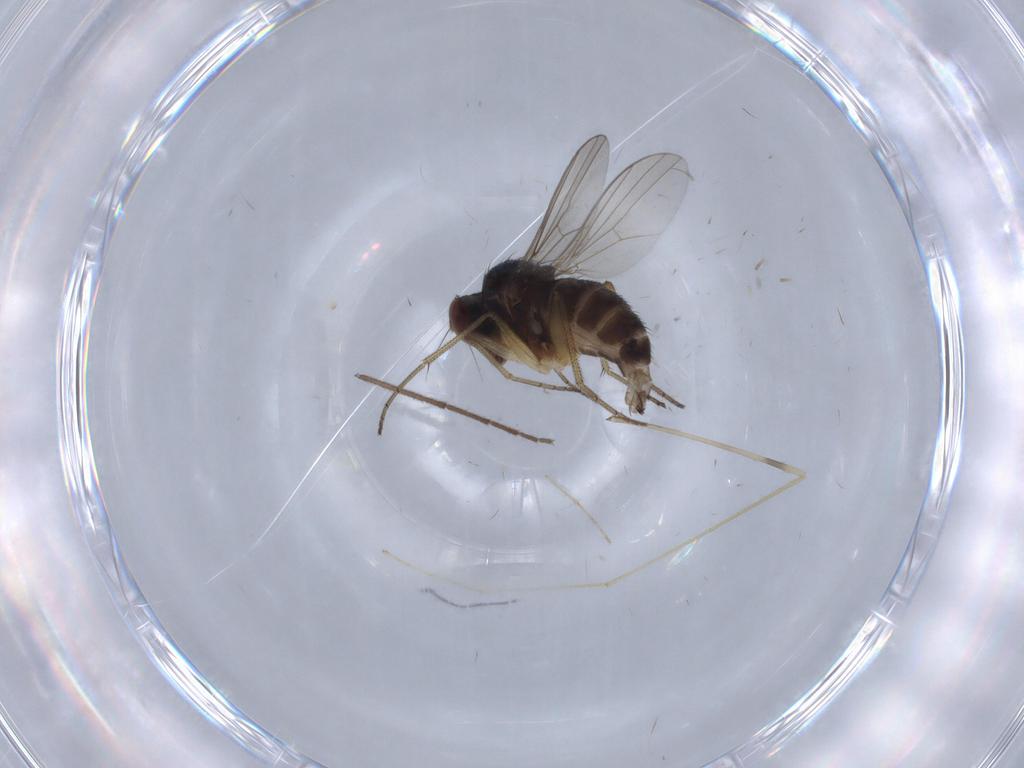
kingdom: Animalia
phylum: Arthropoda
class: Insecta
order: Diptera
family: Dolichopodidae
